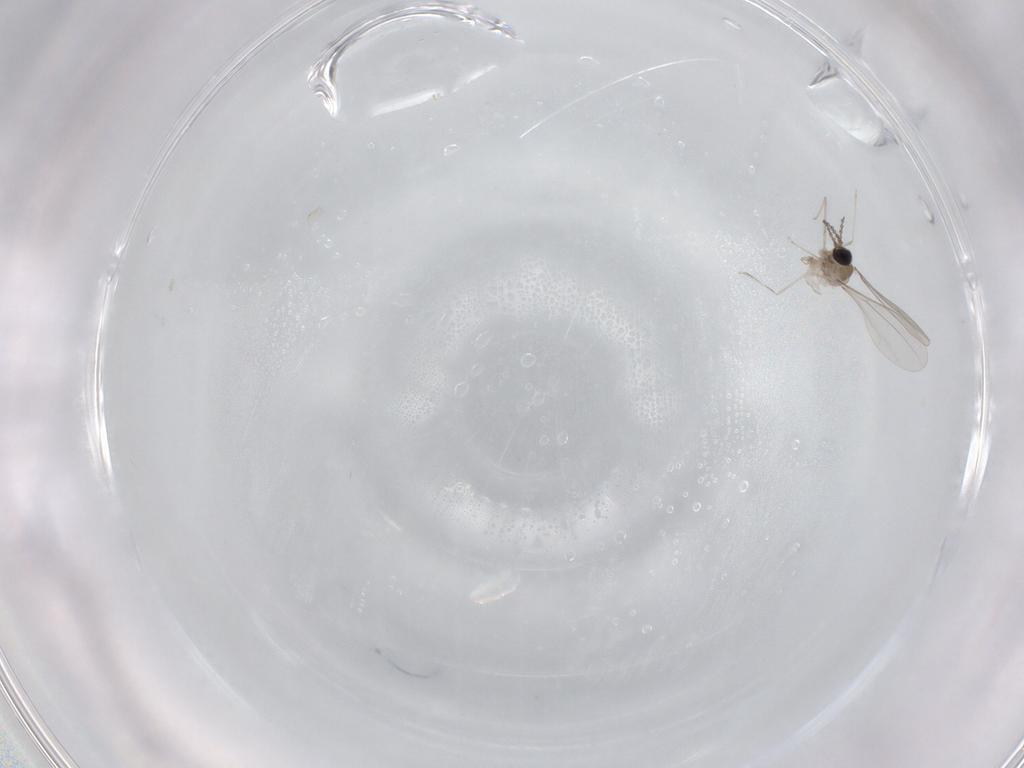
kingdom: Animalia
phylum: Arthropoda
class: Insecta
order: Diptera
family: Cecidomyiidae
